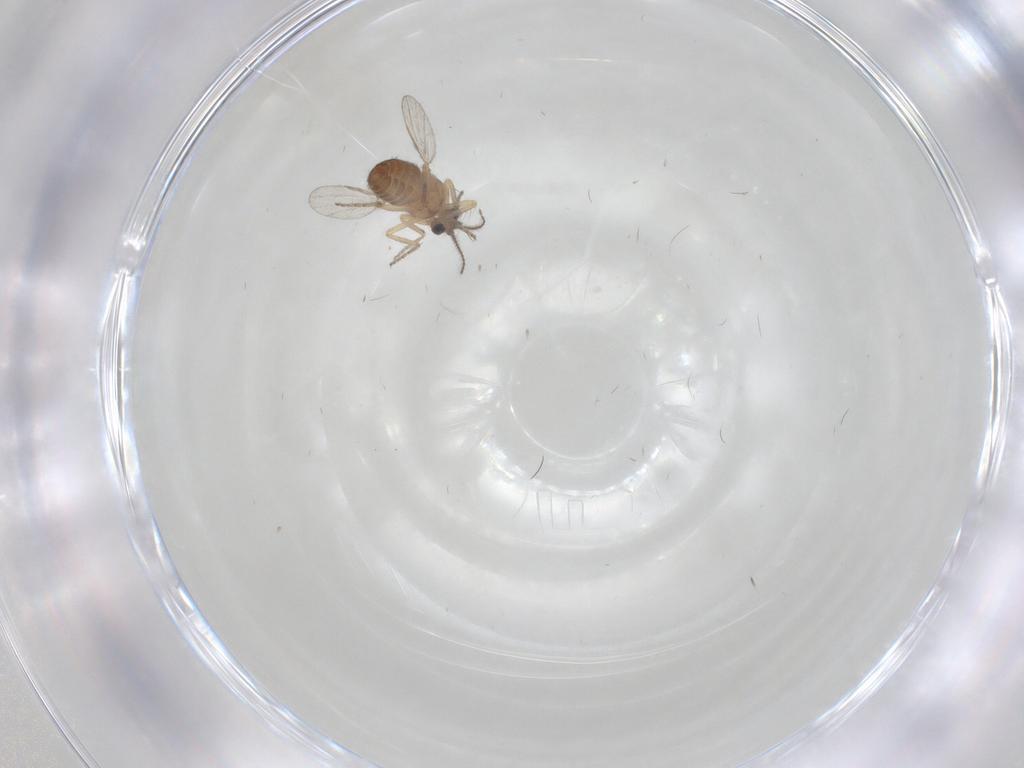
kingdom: Animalia
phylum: Arthropoda
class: Insecta
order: Diptera
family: Ceratopogonidae
